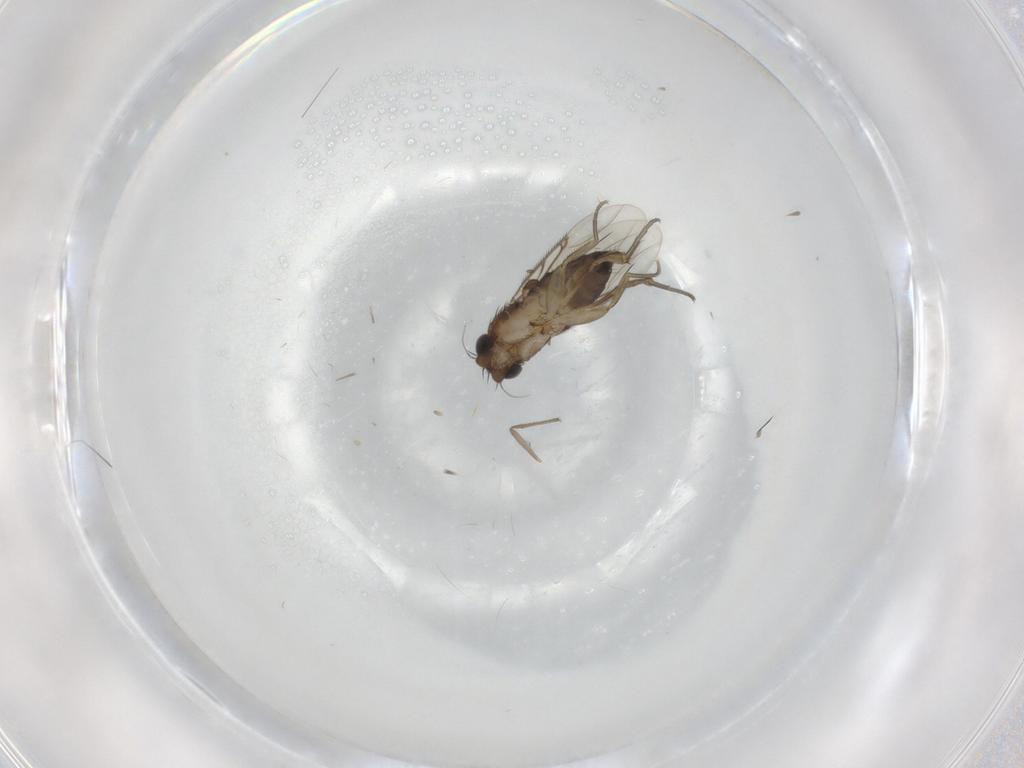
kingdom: Animalia
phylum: Arthropoda
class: Insecta
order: Diptera
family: Phoridae
